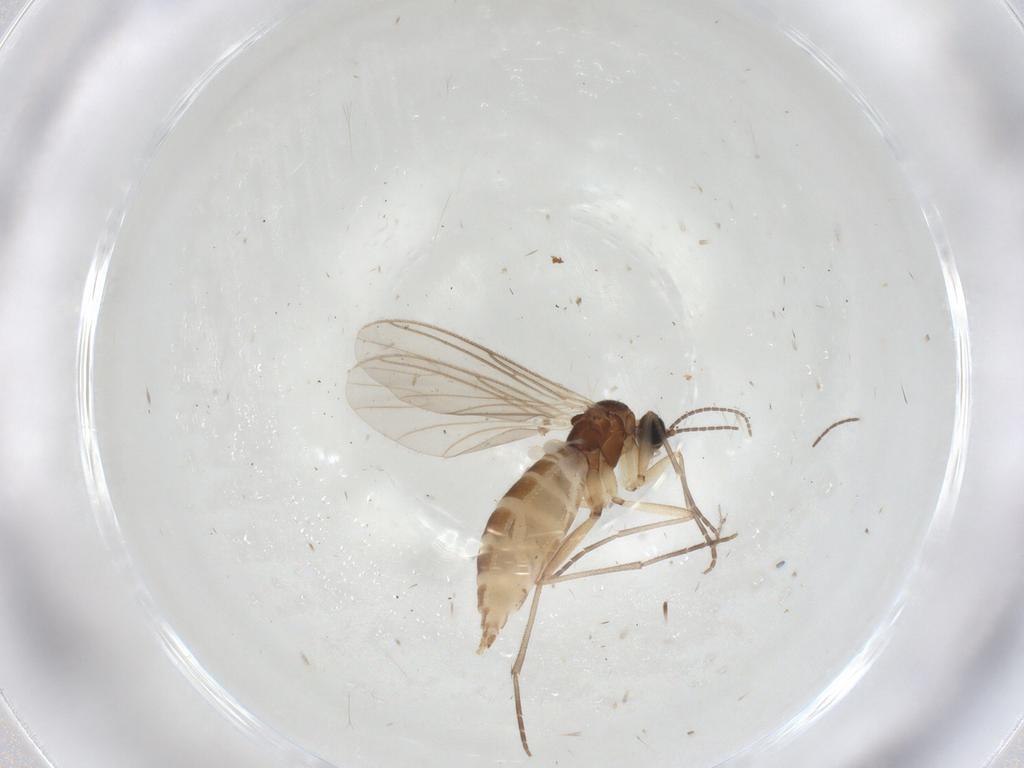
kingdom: Animalia
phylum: Arthropoda
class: Insecta
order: Diptera
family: Sciaridae
